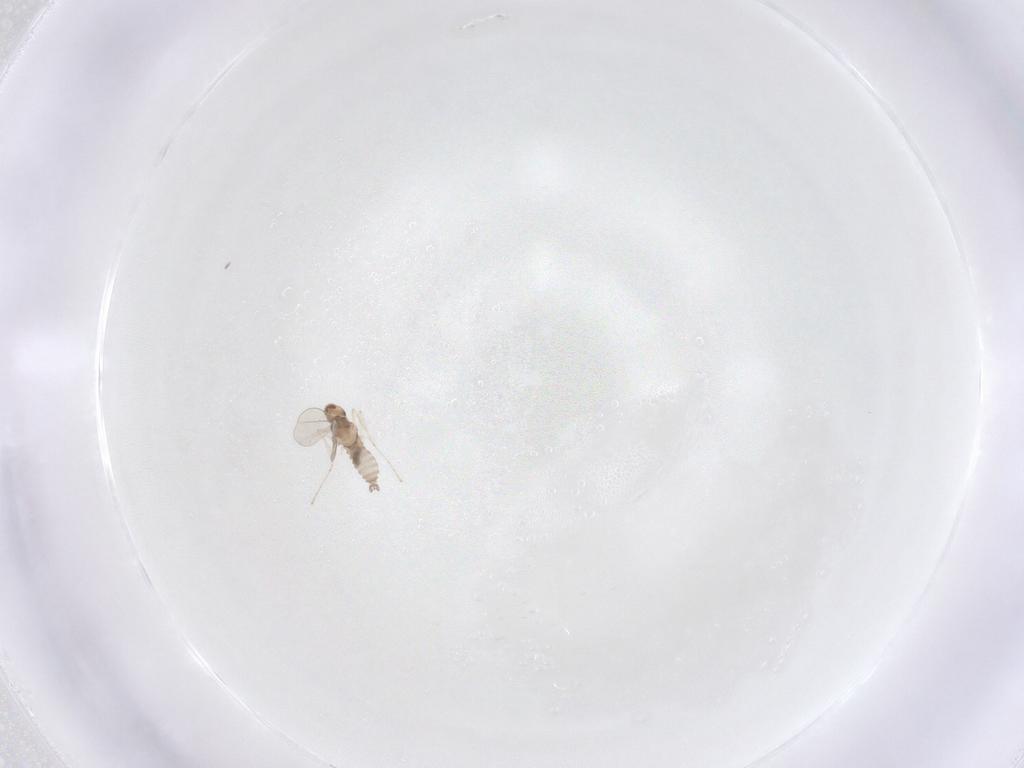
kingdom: Animalia
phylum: Arthropoda
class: Insecta
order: Diptera
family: Cecidomyiidae
